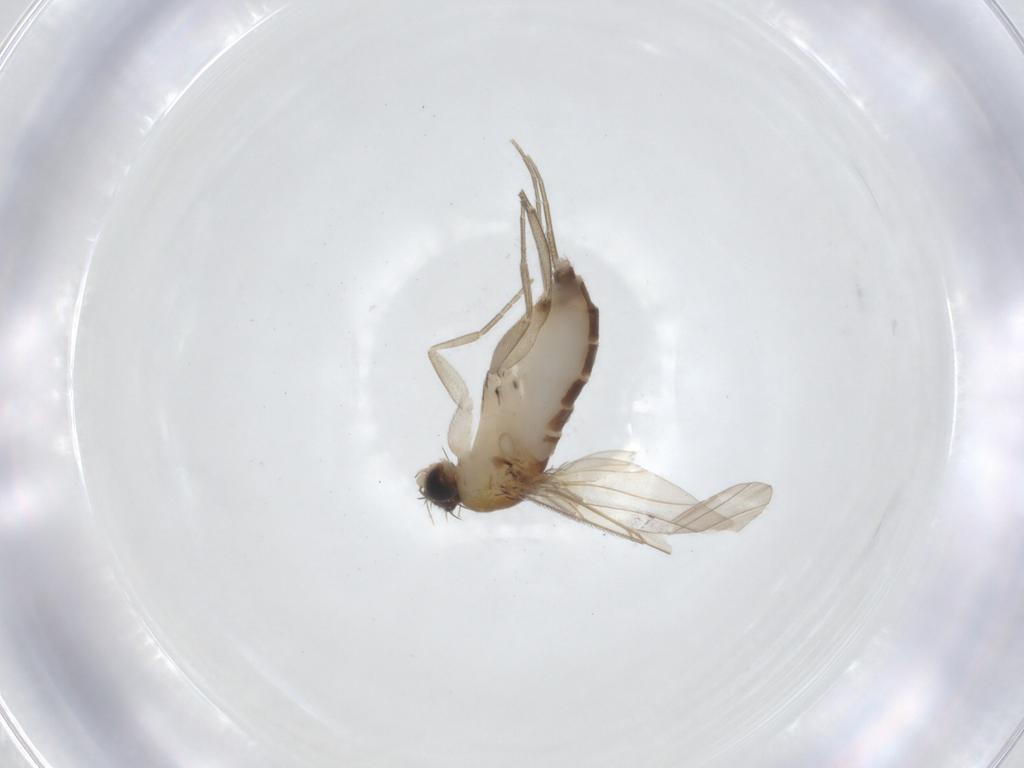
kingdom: Animalia
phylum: Arthropoda
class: Insecta
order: Diptera
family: Phoridae
